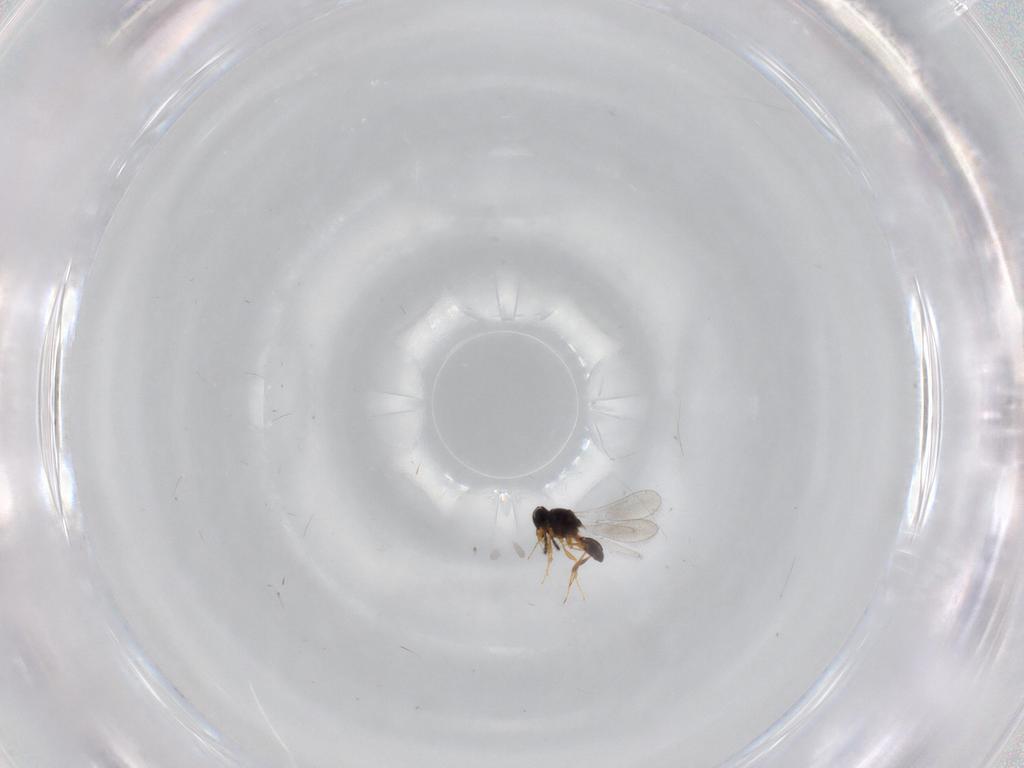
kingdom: Animalia
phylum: Arthropoda
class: Insecta
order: Hymenoptera
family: Platygastridae
